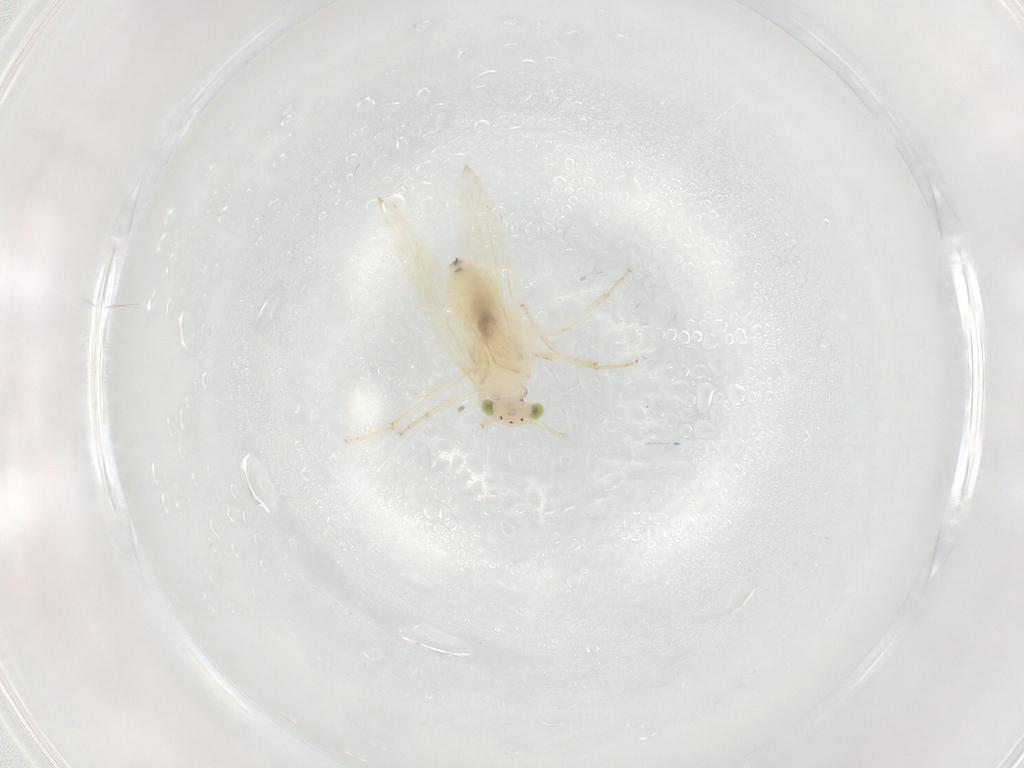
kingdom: Animalia
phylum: Arthropoda
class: Insecta
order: Psocodea
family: Lepidopsocidae
